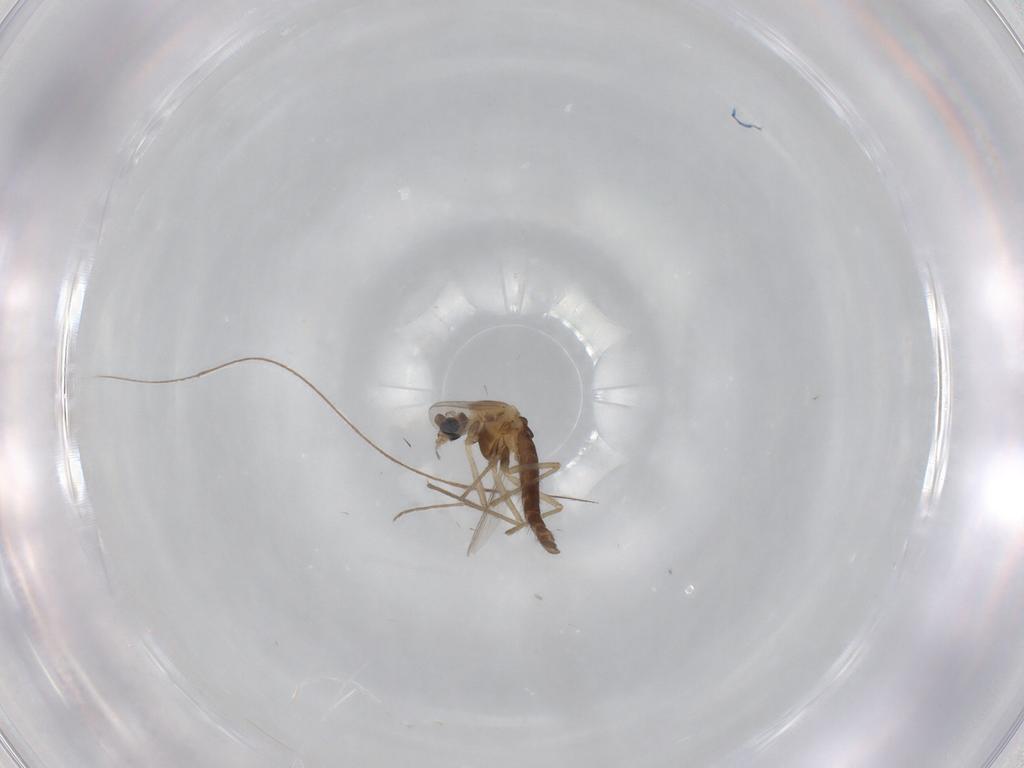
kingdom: Animalia
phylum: Arthropoda
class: Insecta
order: Diptera
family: Chironomidae
